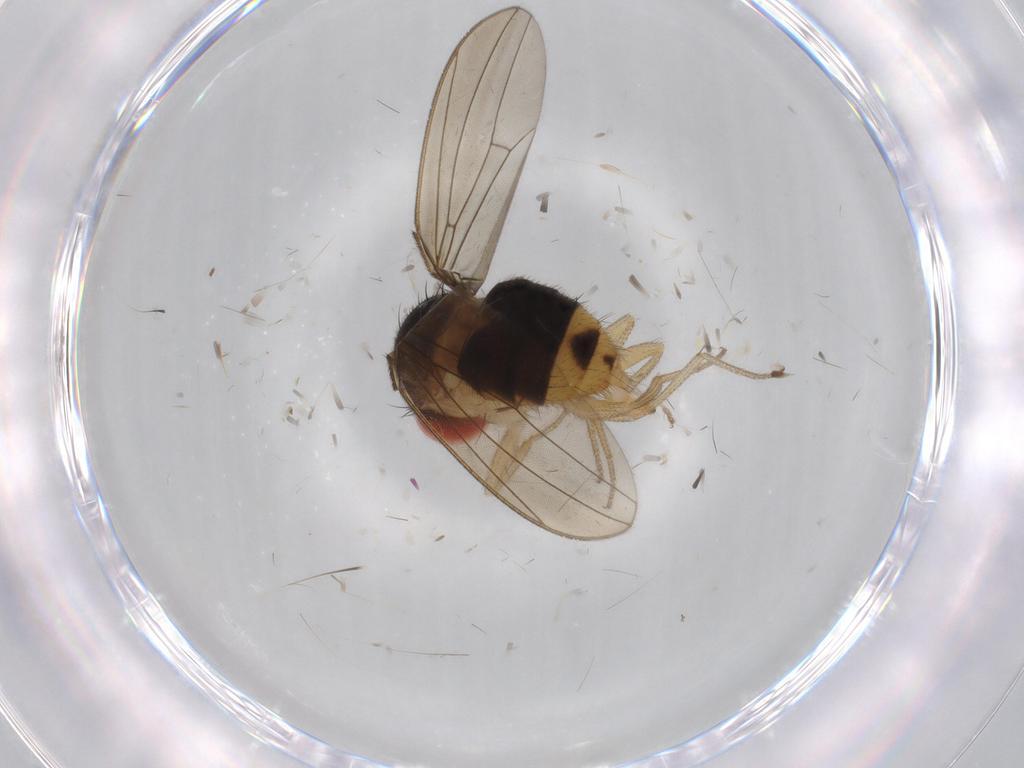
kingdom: Animalia
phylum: Arthropoda
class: Insecta
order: Diptera
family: Drosophilidae
